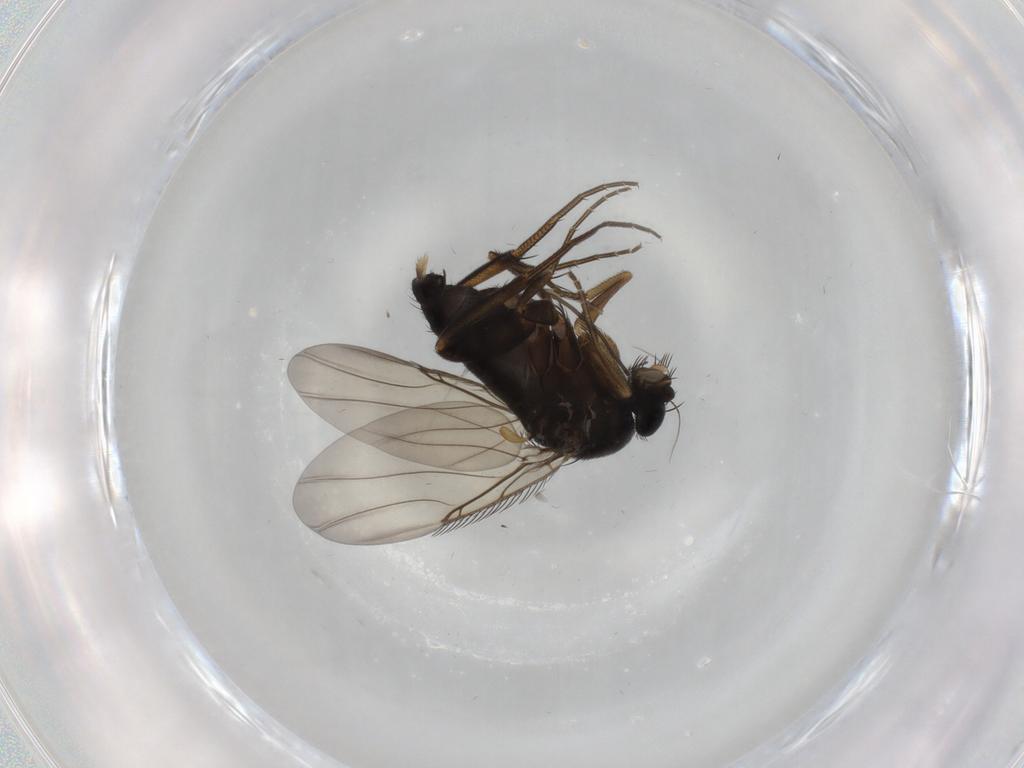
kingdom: Animalia
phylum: Arthropoda
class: Insecta
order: Diptera
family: Phoridae
